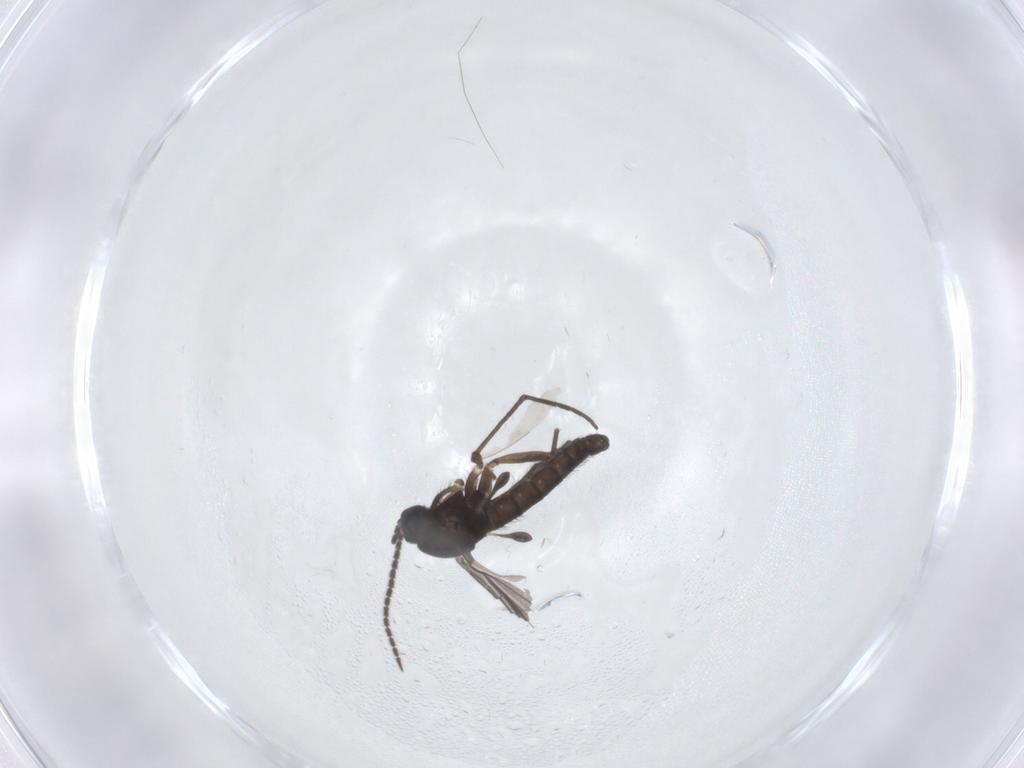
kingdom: Animalia
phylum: Arthropoda
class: Insecta
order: Diptera
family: Sciaridae
